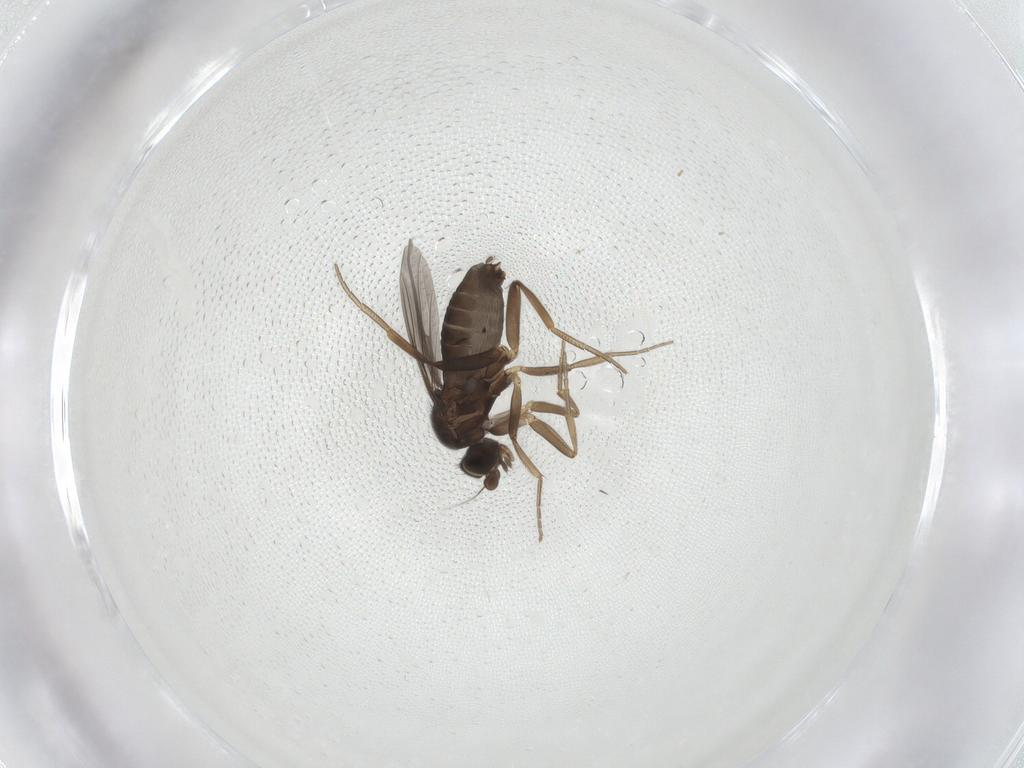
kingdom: Animalia
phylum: Arthropoda
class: Insecta
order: Diptera
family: Phoridae
